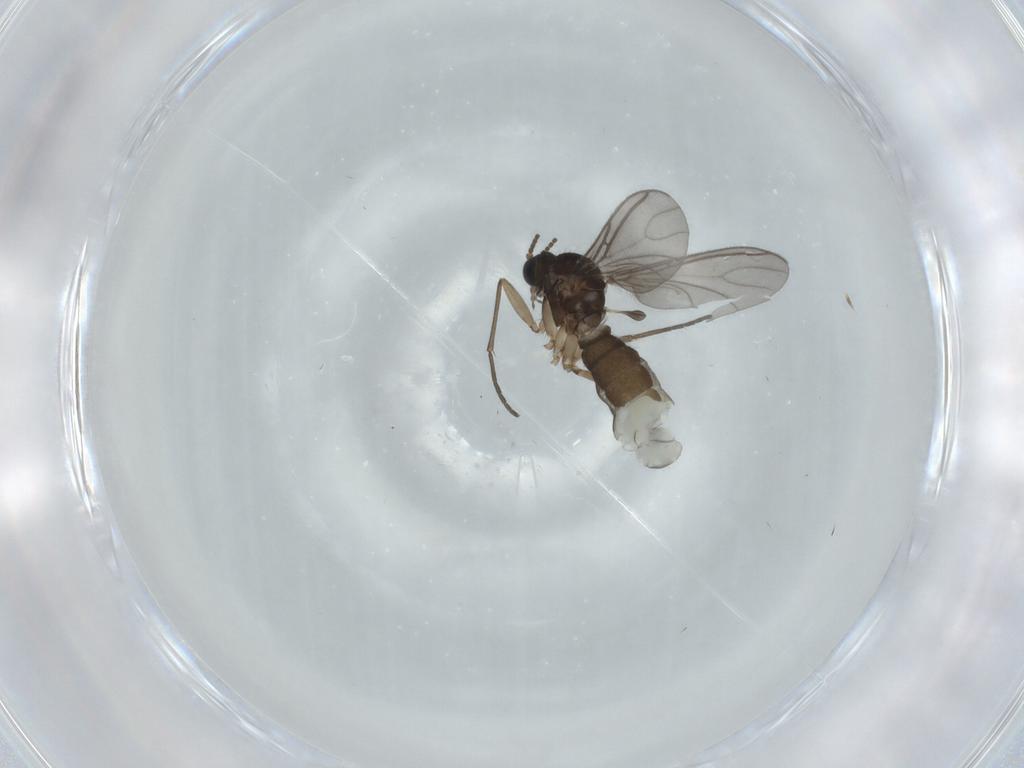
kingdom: Animalia
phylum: Arthropoda
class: Insecta
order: Diptera
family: Sciaridae
